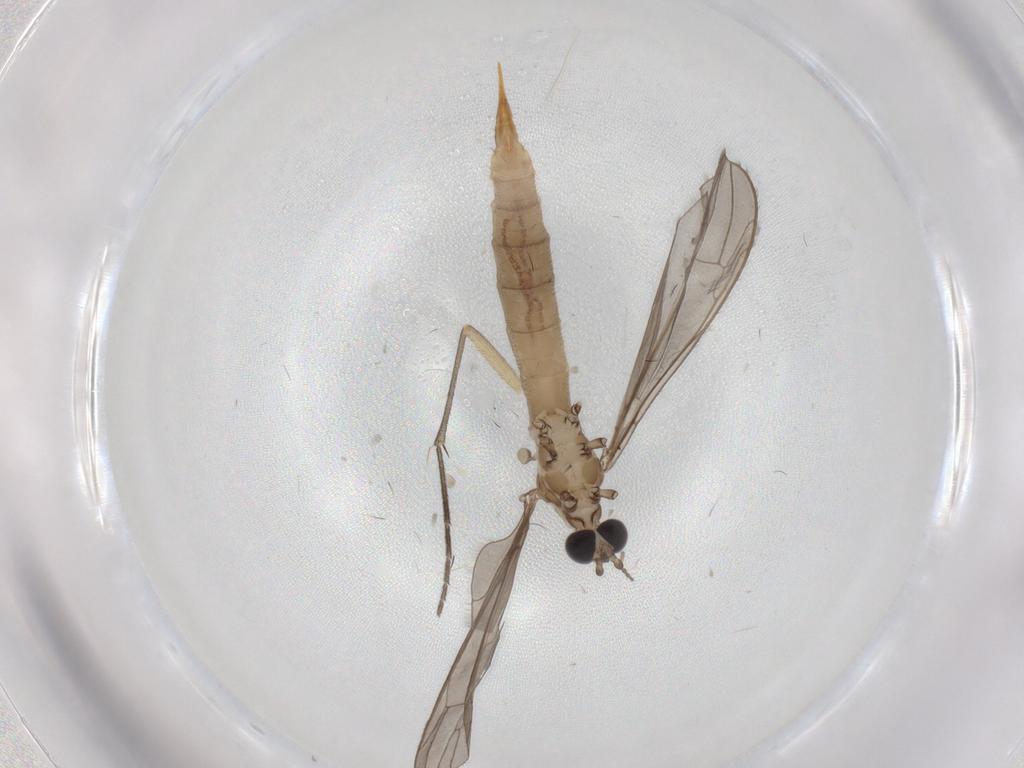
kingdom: Animalia
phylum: Arthropoda
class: Insecta
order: Diptera
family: Limoniidae
